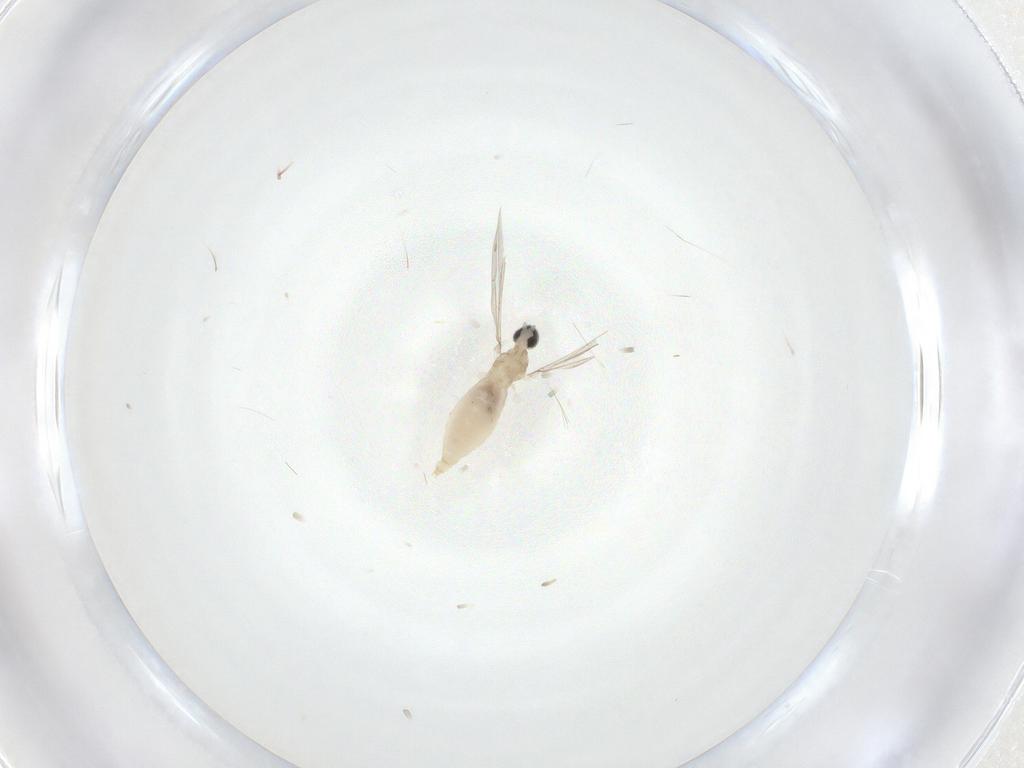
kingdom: Animalia
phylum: Arthropoda
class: Insecta
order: Diptera
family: Cecidomyiidae
